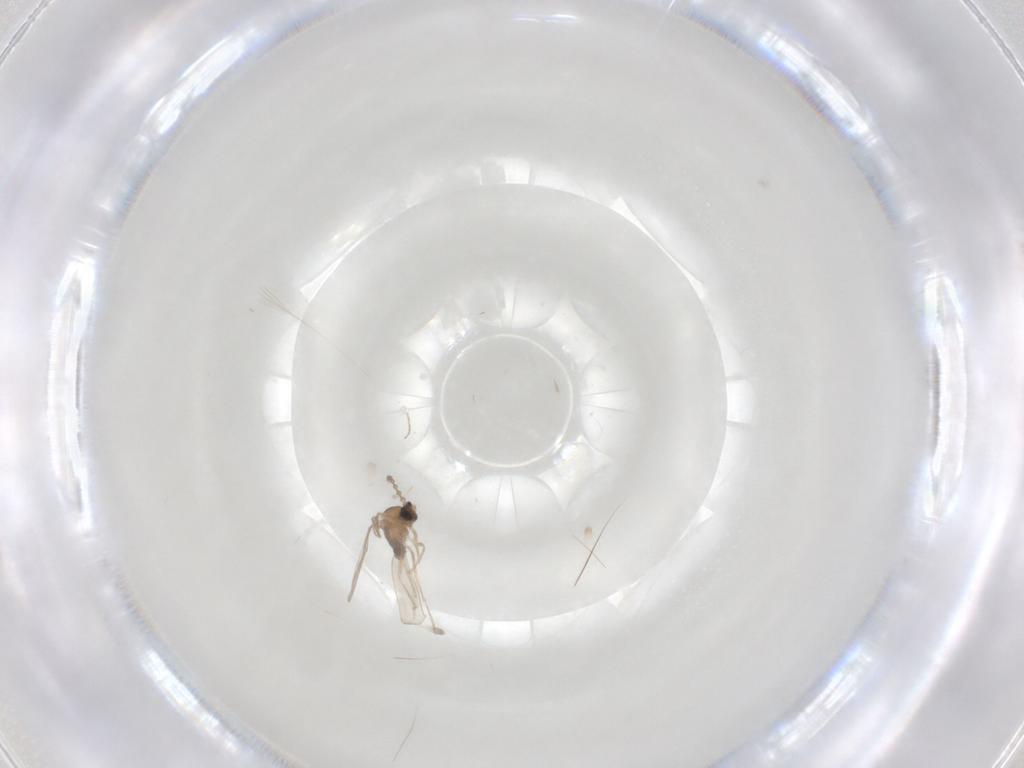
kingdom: Animalia
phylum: Arthropoda
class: Insecta
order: Diptera
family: Cecidomyiidae
